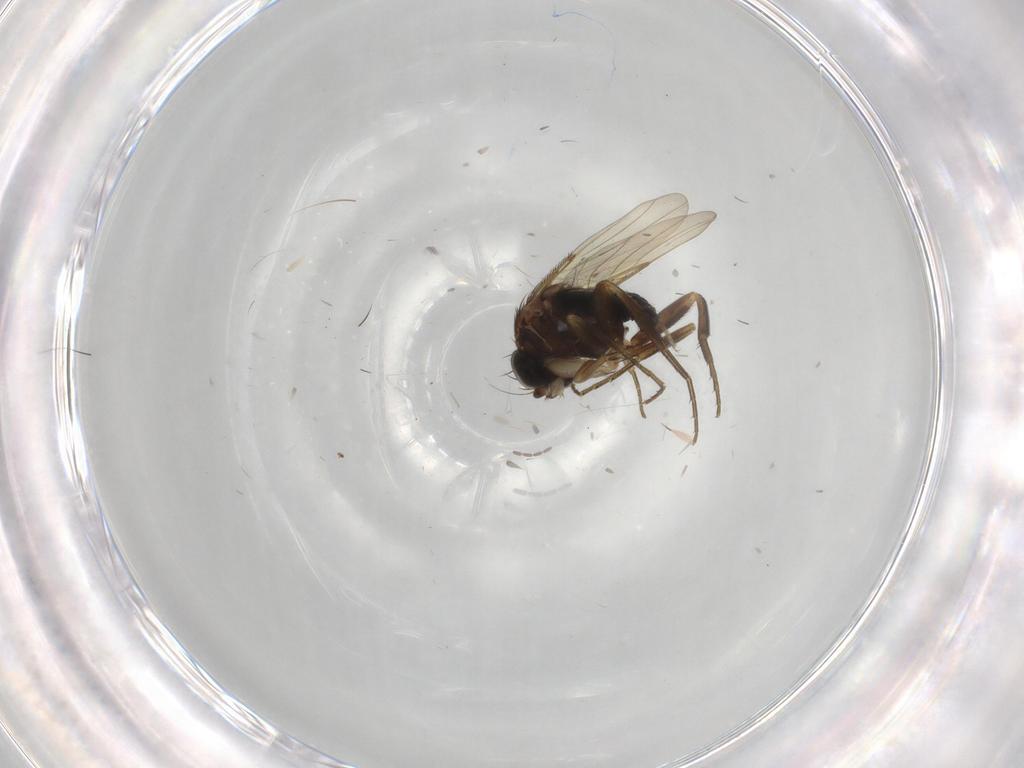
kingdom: Animalia
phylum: Arthropoda
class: Insecta
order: Diptera
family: Phoridae
